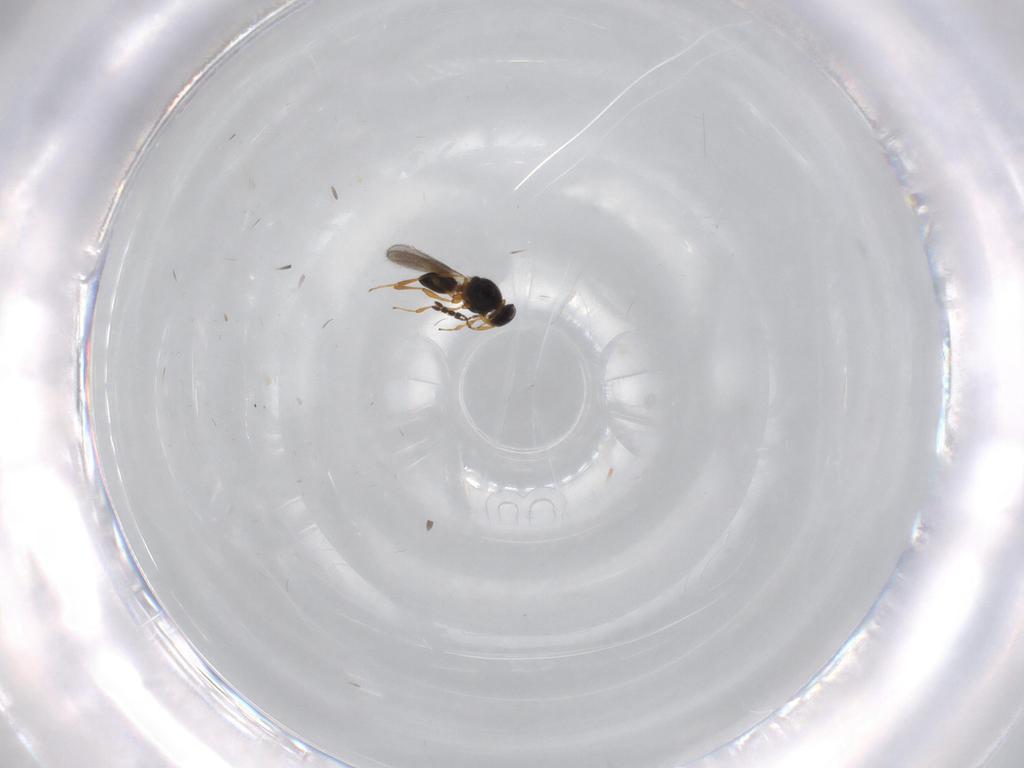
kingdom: Animalia
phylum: Arthropoda
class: Insecta
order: Hymenoptera
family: Platygastridae
